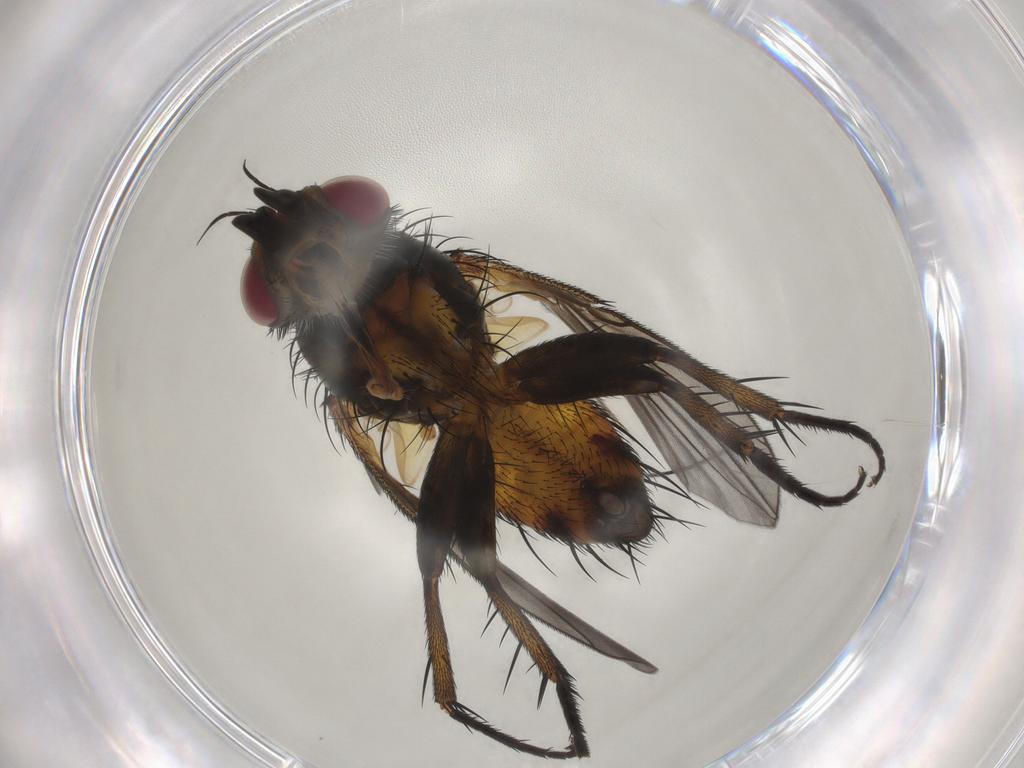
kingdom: Animalia
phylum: Arthropoda
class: Insecta
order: Diptera
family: Tachinidae
